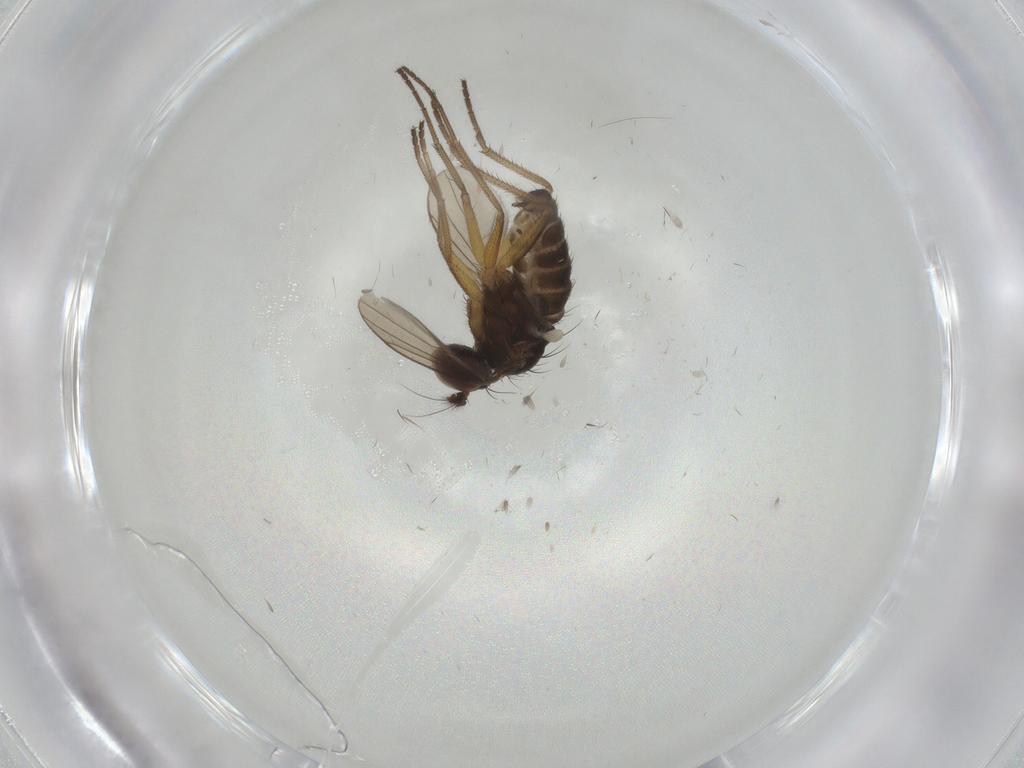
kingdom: Animalia
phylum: Arthropoda
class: Insecta
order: Diptera
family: Dolichopodidae
